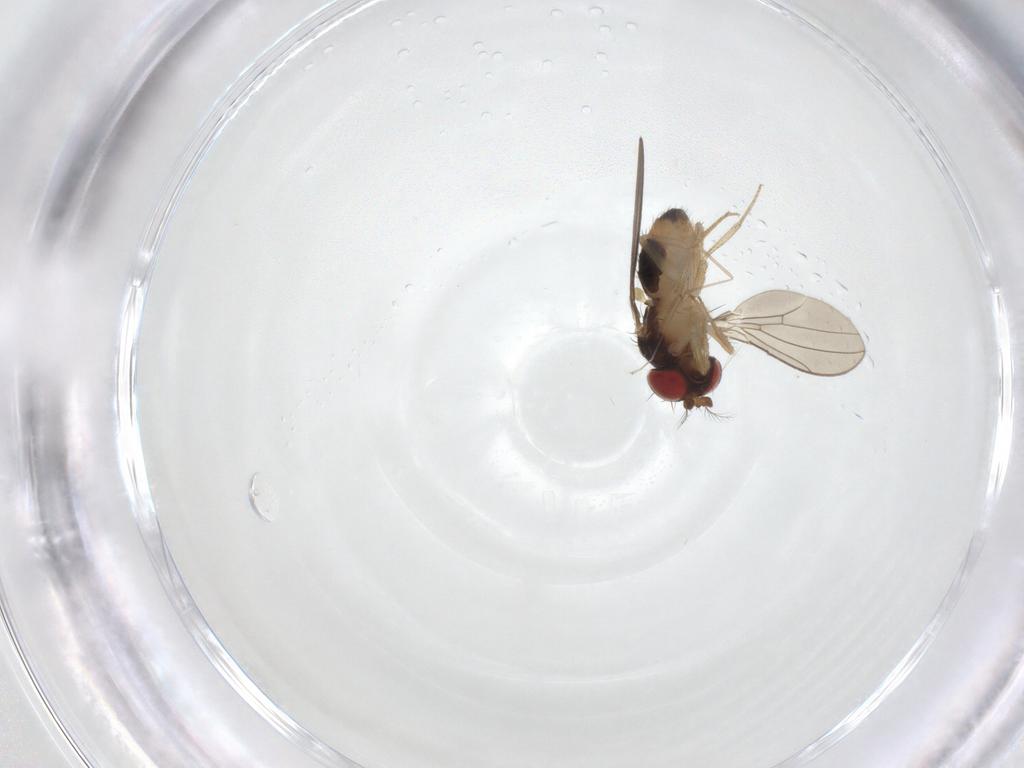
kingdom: Animalia
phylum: Arthropoda
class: Insecta
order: Diptera
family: Drosophilidae
